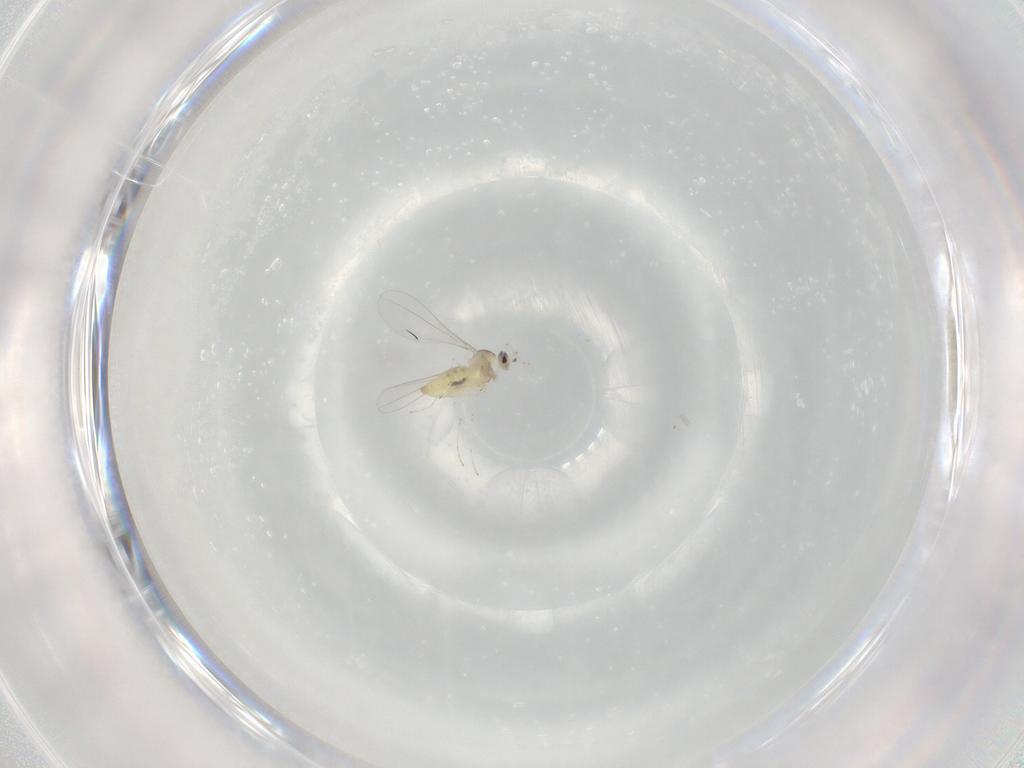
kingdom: Animalia
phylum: Arthropoda
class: Insecta
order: Diptera
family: Cecidomyiidae
